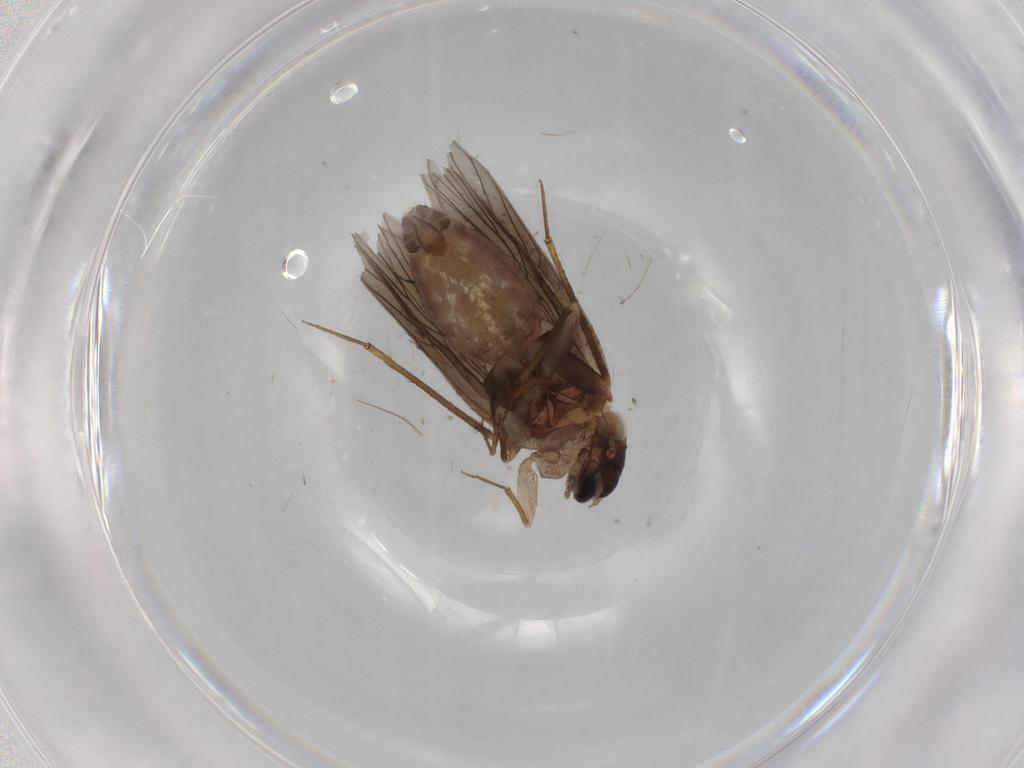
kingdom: Animalia
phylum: Arthropoda
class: Insecta
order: Psocodea
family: Lepidopsocidae
